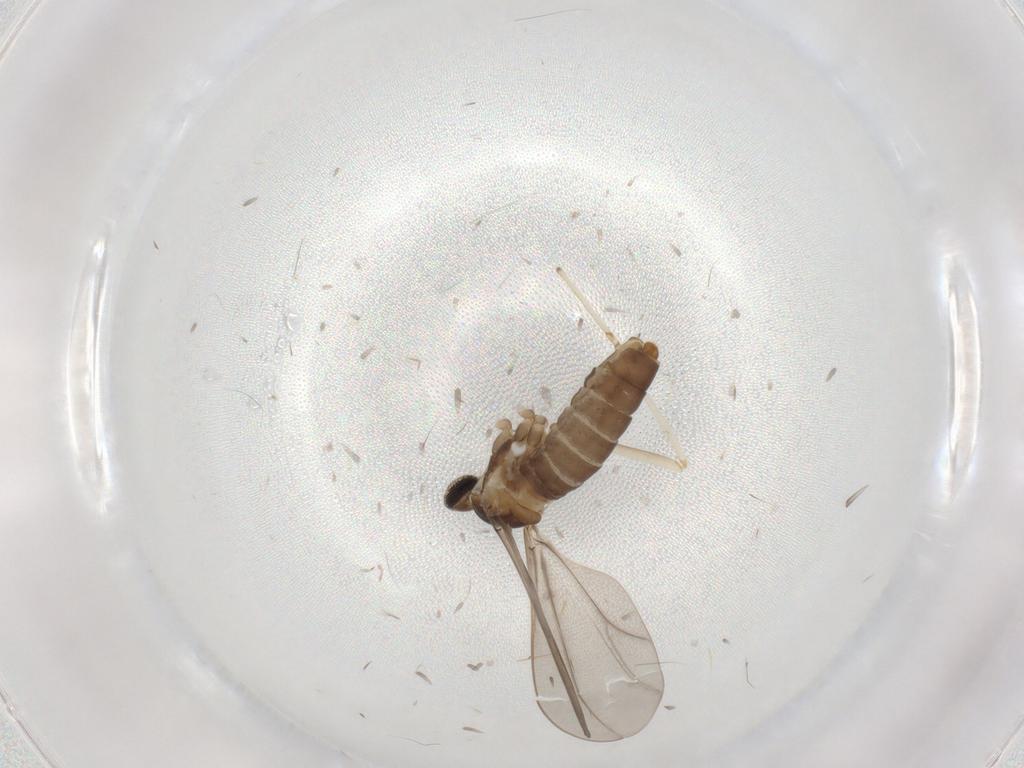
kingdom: Animalia
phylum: Arthropoda
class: Insecta
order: Diptera
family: Cecidomyiidae
